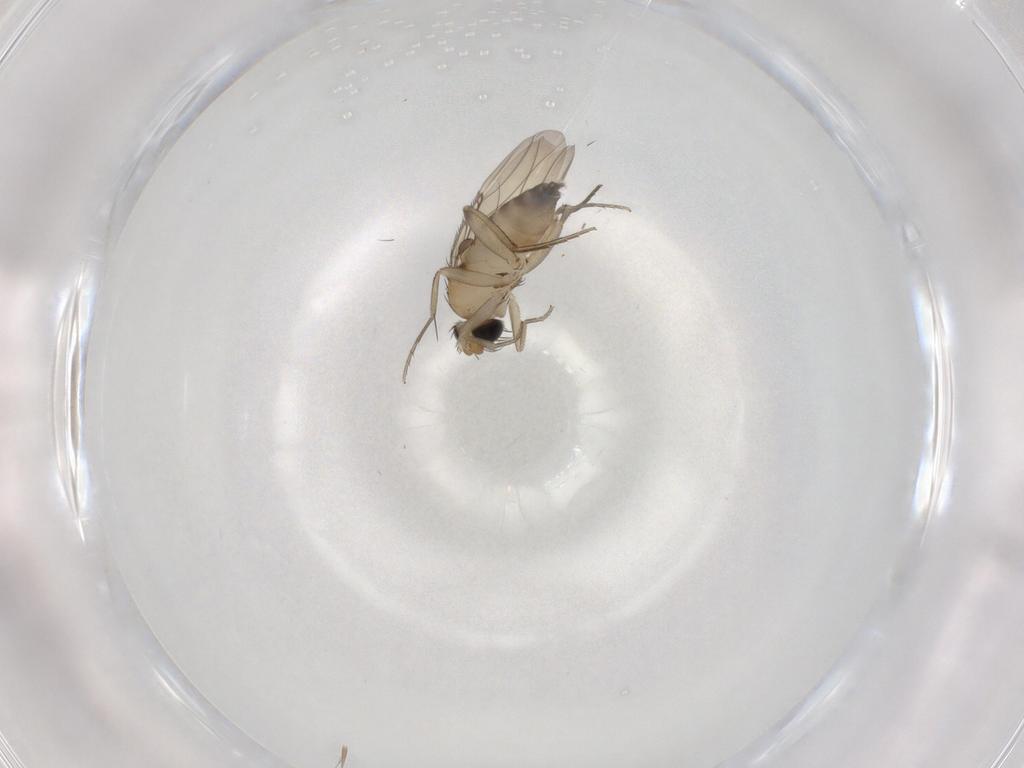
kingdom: Animalia
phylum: Arthropoda
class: Insecta
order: Diptera
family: Phoridae
